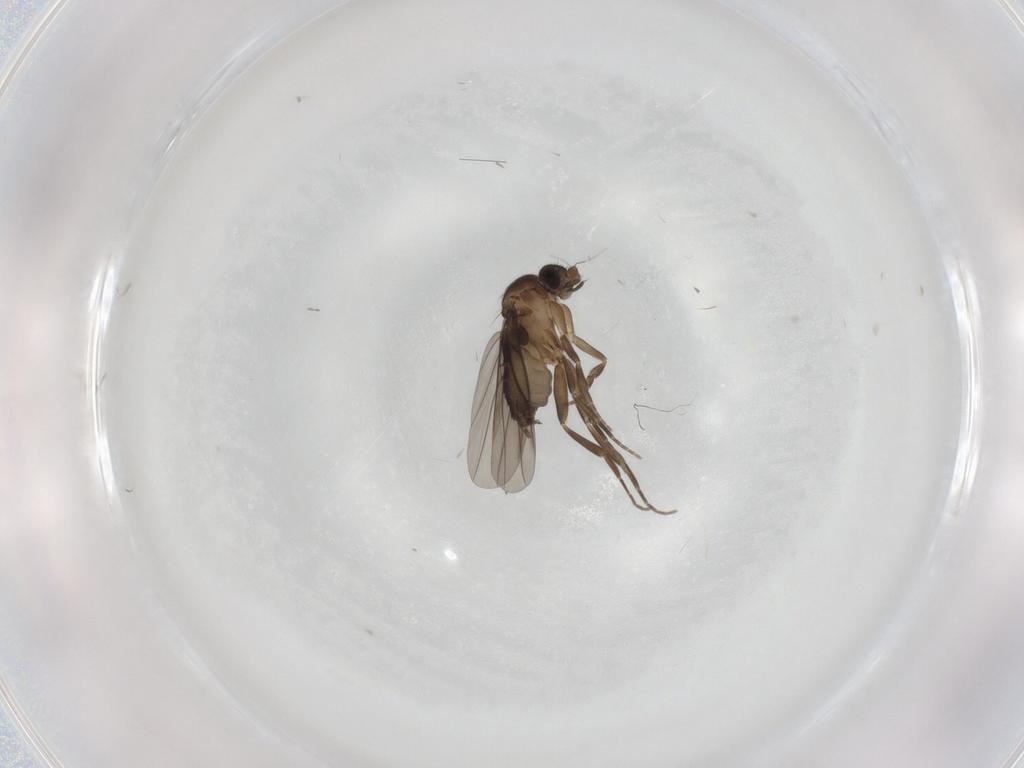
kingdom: Animalia
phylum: Arthropoda
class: Insecta
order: Diptera
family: Chironomidae
